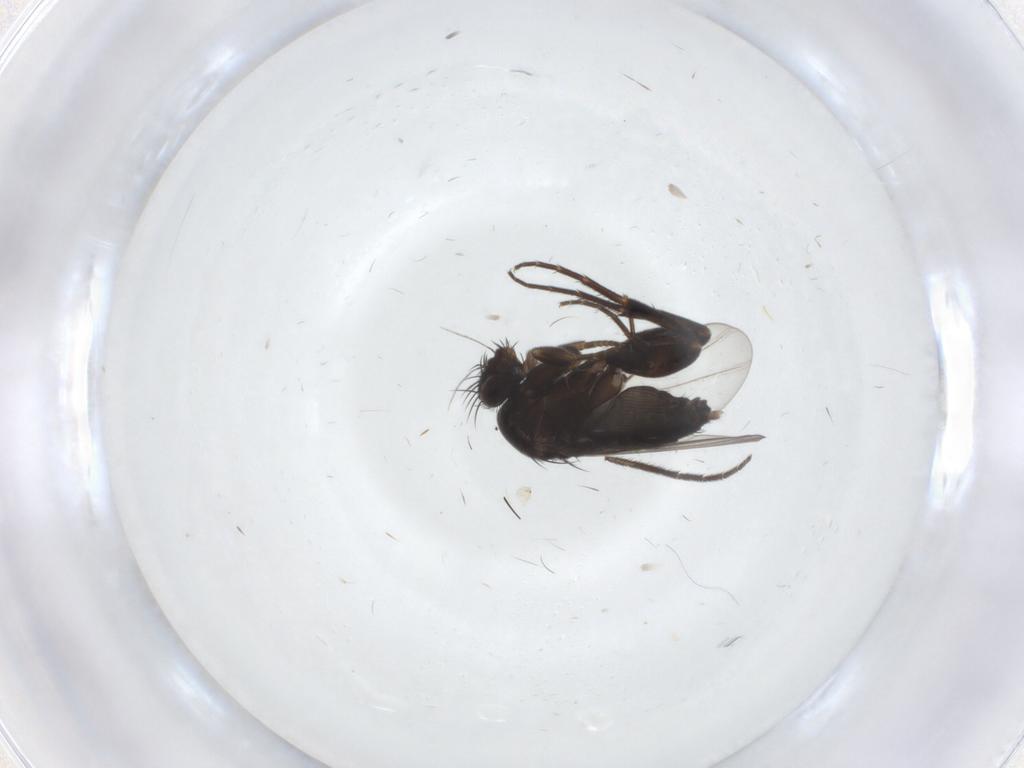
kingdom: Animalia
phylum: Arthropoda
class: Insecta
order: Diptera
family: Phoridae
